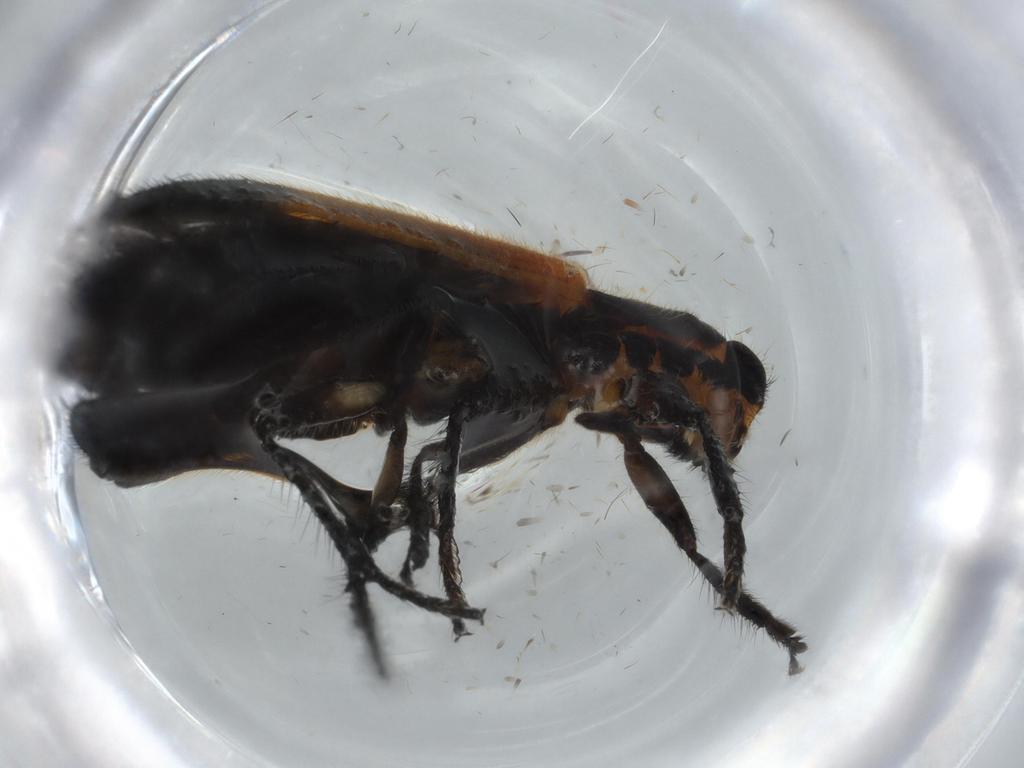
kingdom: Animalia
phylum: Arthropoda
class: Insecta
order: Coleoptera
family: Cleridae
